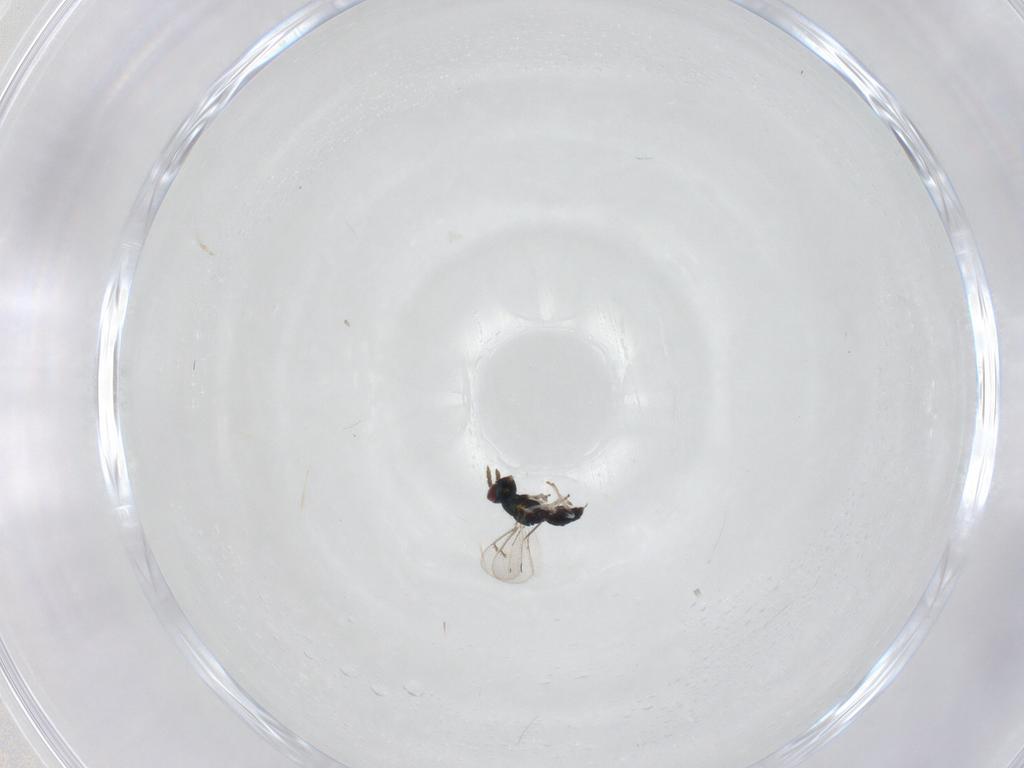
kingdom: Animalia
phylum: Arthropoda
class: Insecta
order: Hymenoptera
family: Eulophidae
